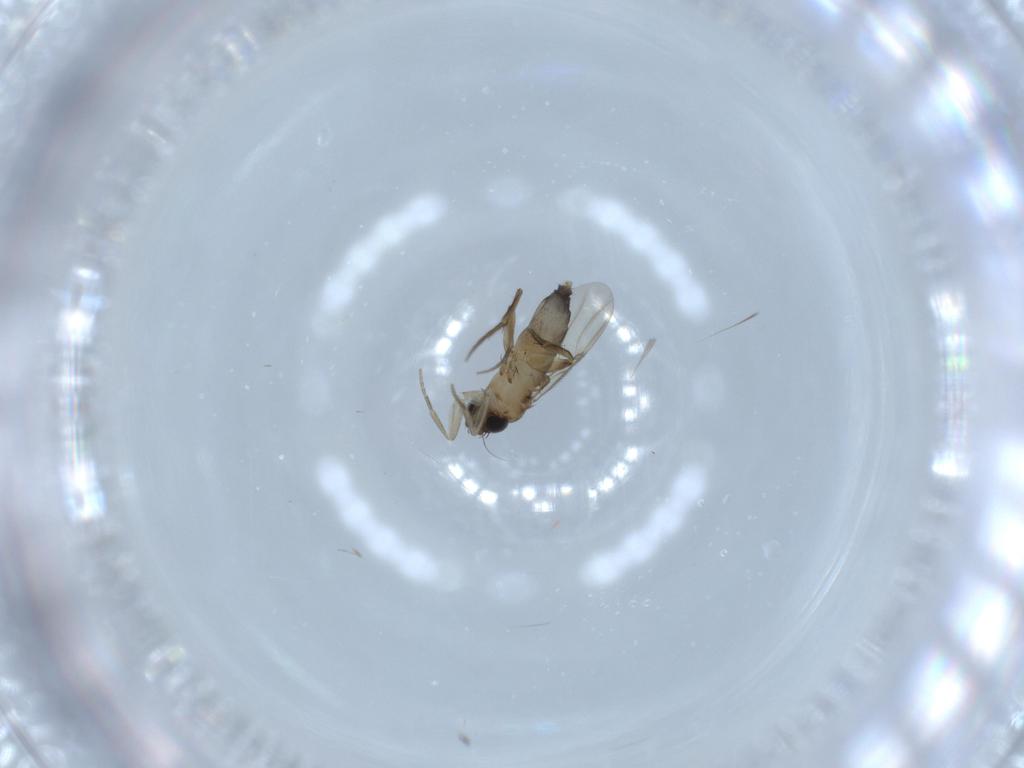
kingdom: Animalia
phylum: Arthropoda
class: Insecta
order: Diptera
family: Phoridae
